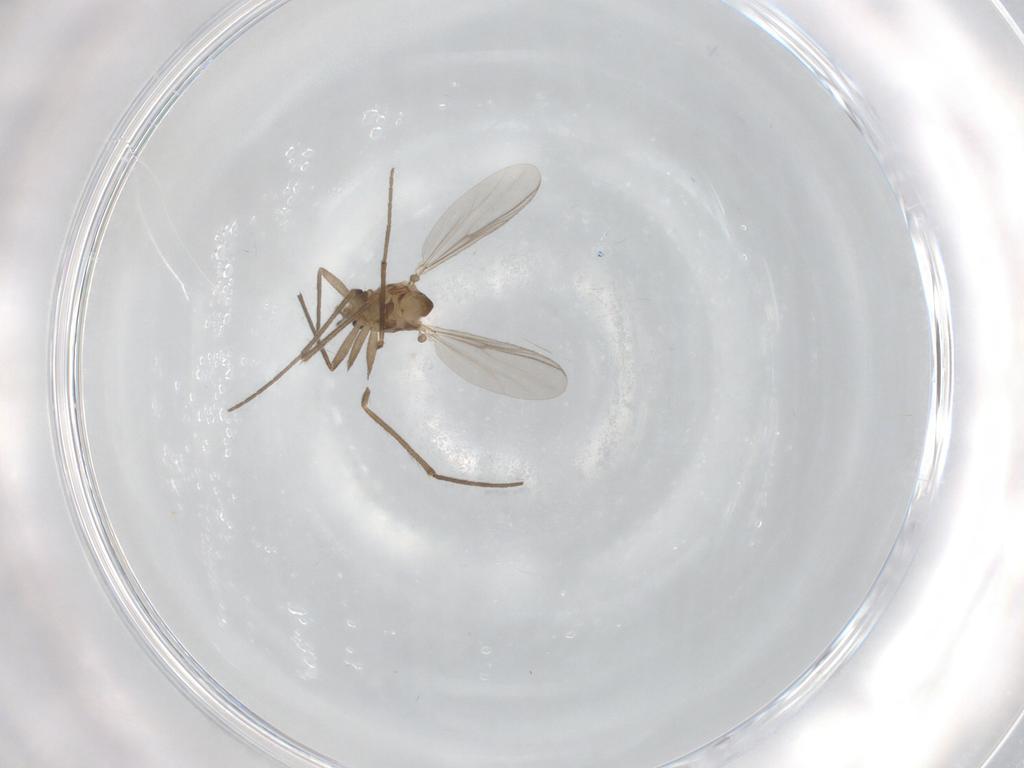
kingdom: Animalia
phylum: Arthropoda
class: Insecta
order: Diptera
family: Chironomidae
